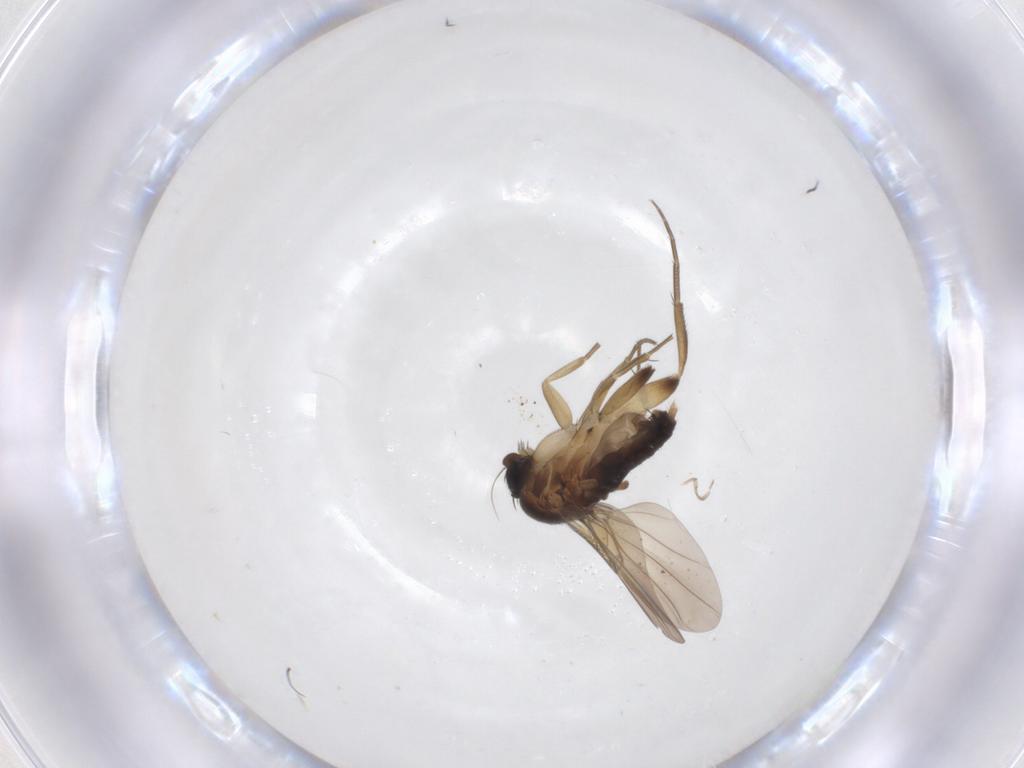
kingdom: Animalia
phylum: Arthropoda
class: Insecta
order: Diptera
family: Phoridae
